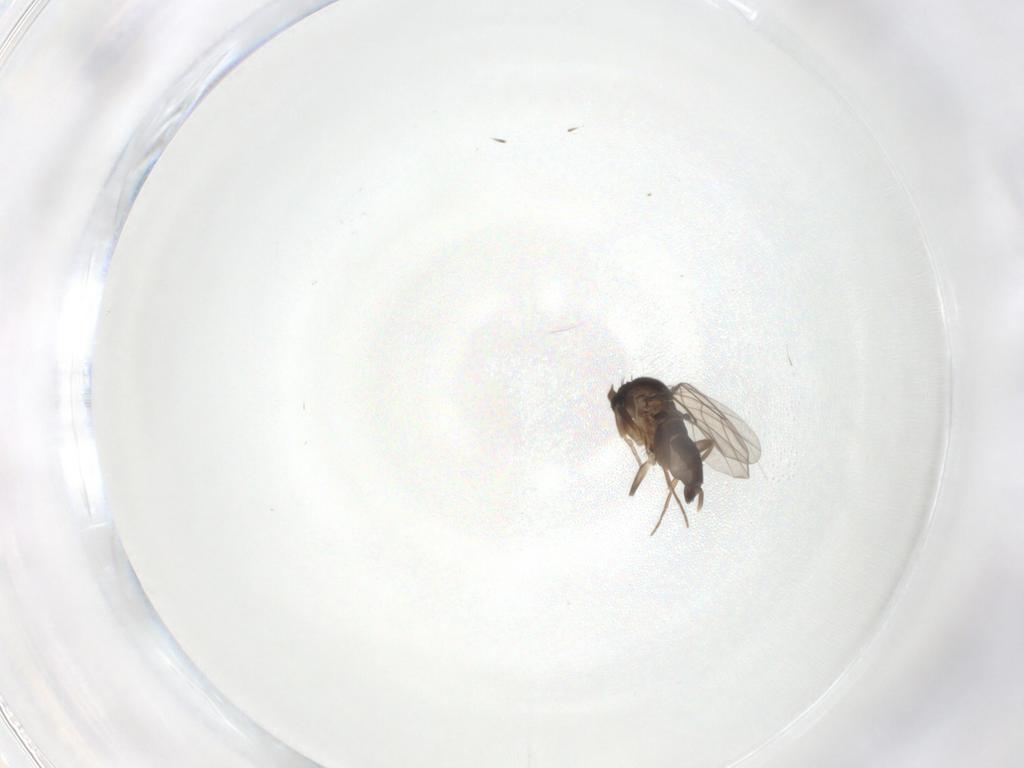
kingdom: Animalia
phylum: Arthropoda
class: Insecta
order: Diptera
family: Phoridae
